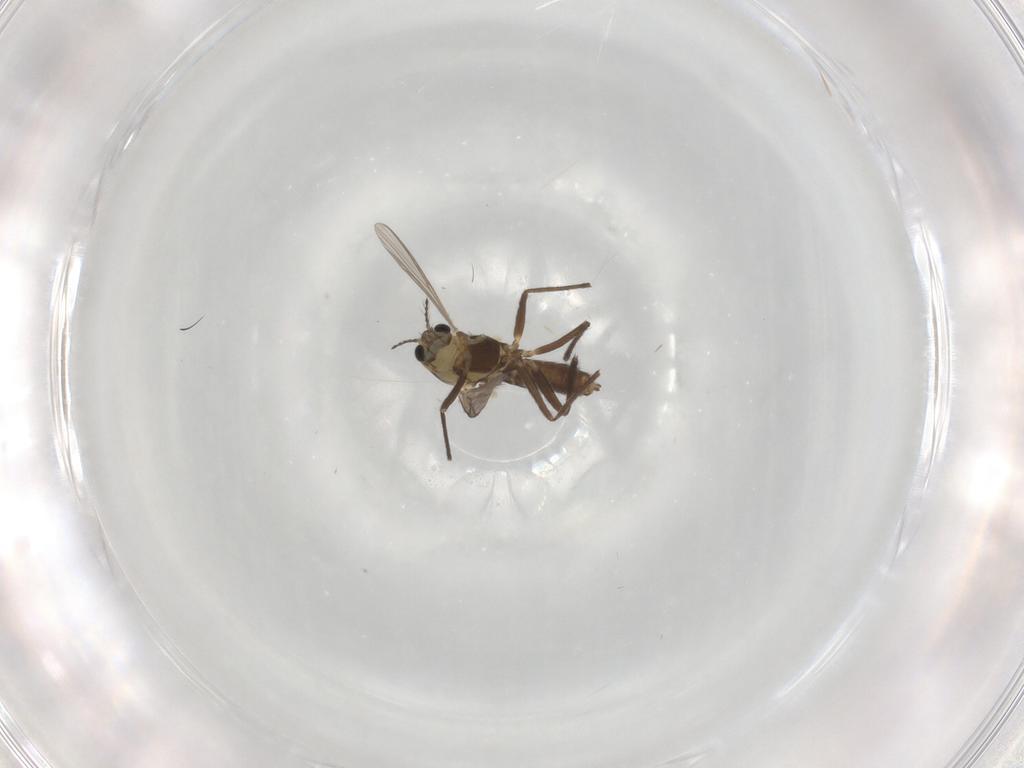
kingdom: Animalia
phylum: Arthropoda
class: Insecta
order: Diptera
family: Chironomidae
